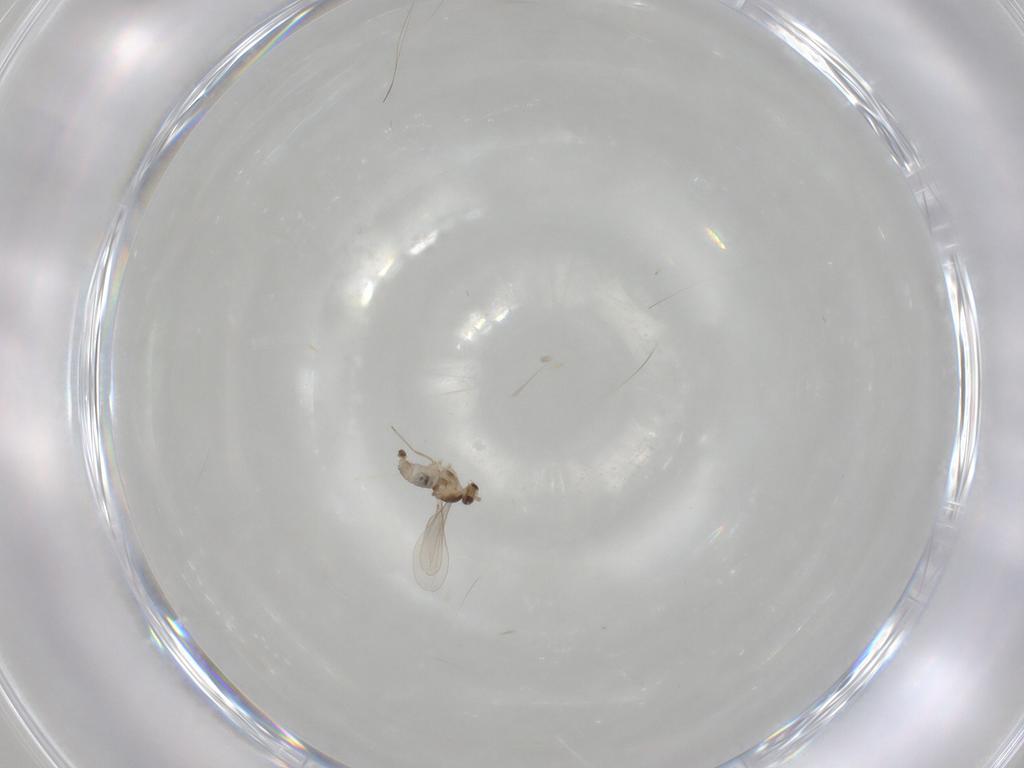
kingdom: Animalia
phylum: Arthropoda
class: Insecta
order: Diptera
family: Cecidomyiidae
